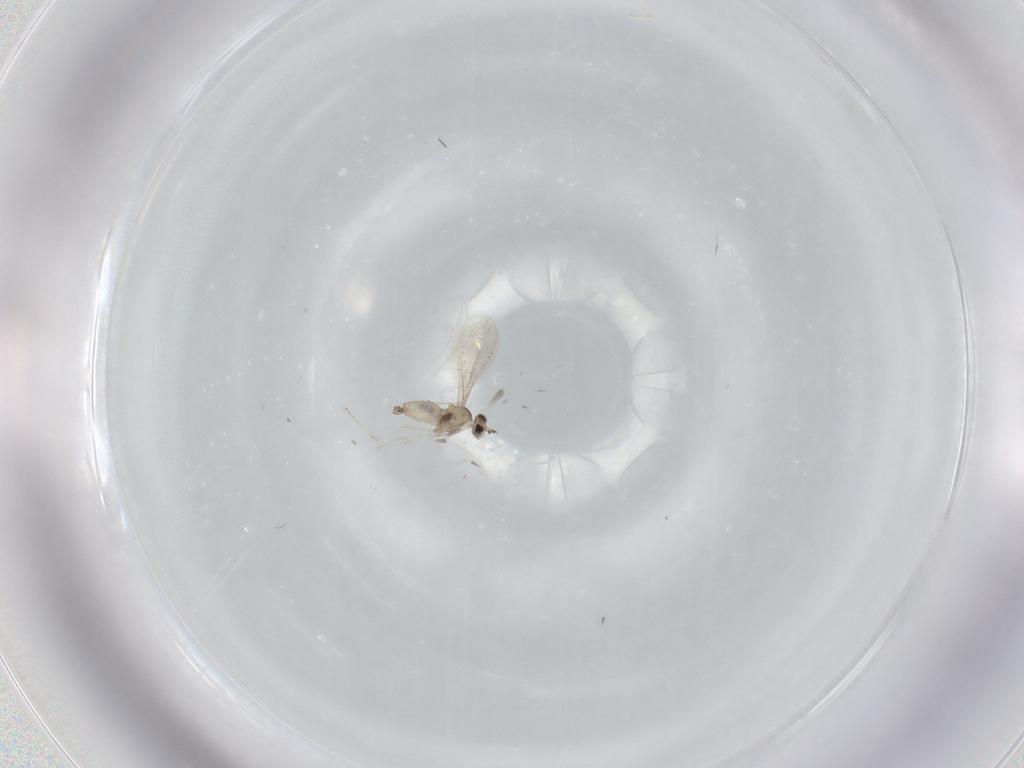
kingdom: Animalia
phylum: Arthropoda
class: Insecta
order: Diptera
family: Cecidomyiidae
